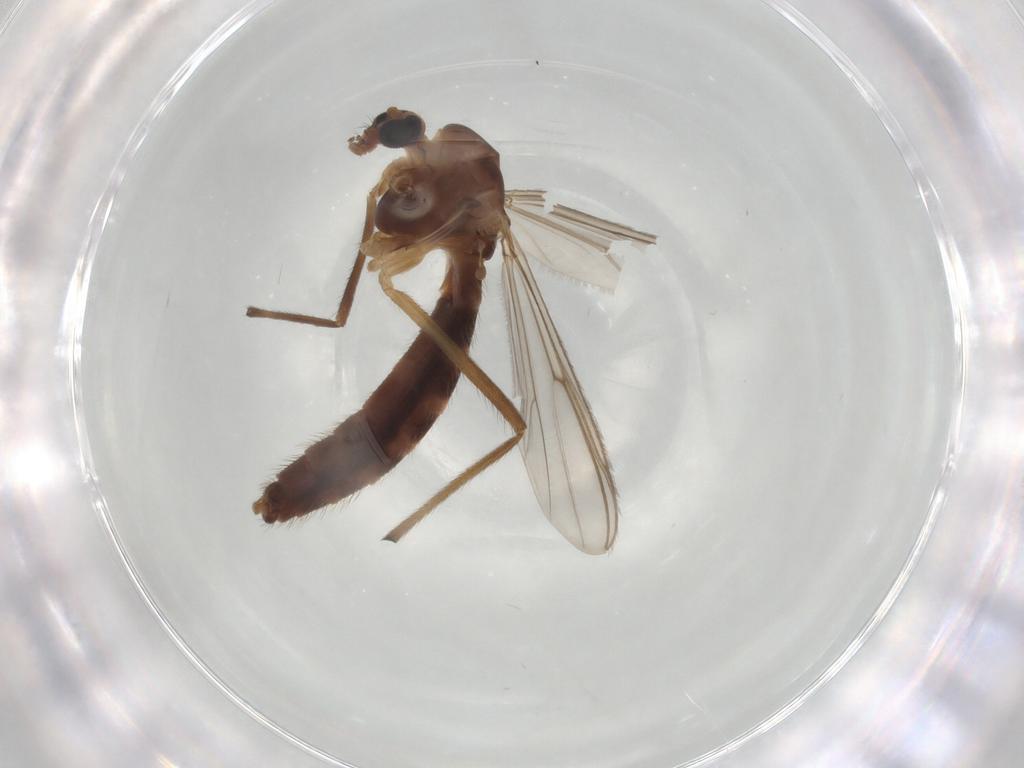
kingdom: Animalia
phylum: Arthropoda
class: Insecta
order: Diptera
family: Chironomidae
